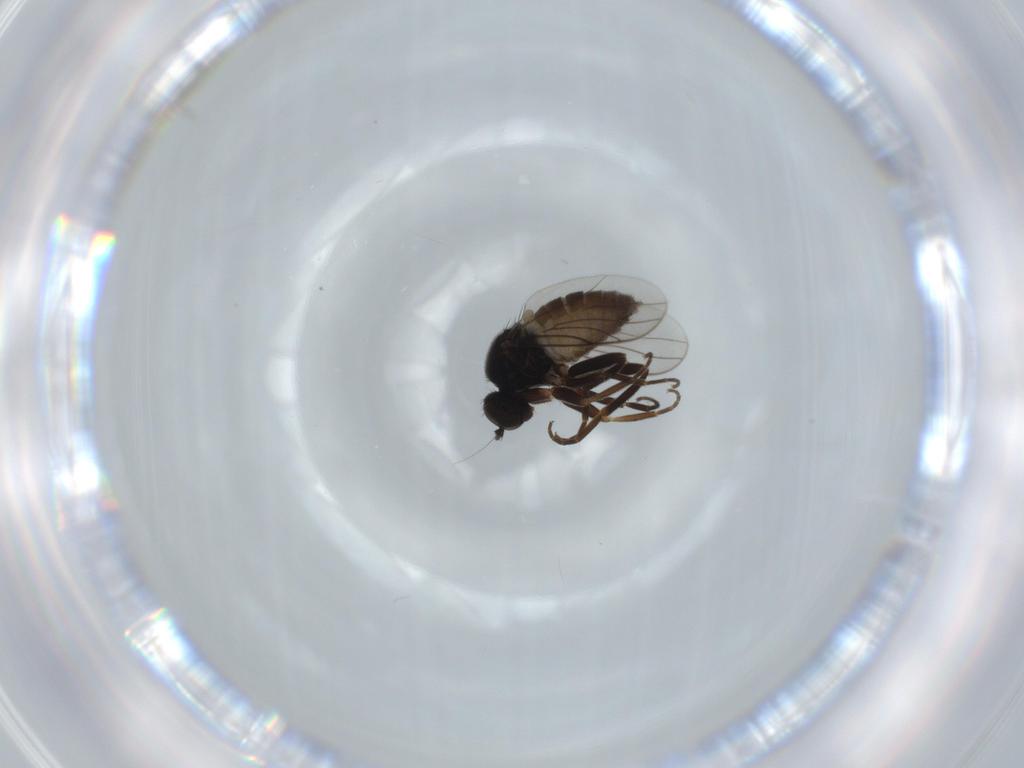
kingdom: Animalia
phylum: Arthropoda
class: Insecta
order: Diptera
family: Hybotidae
